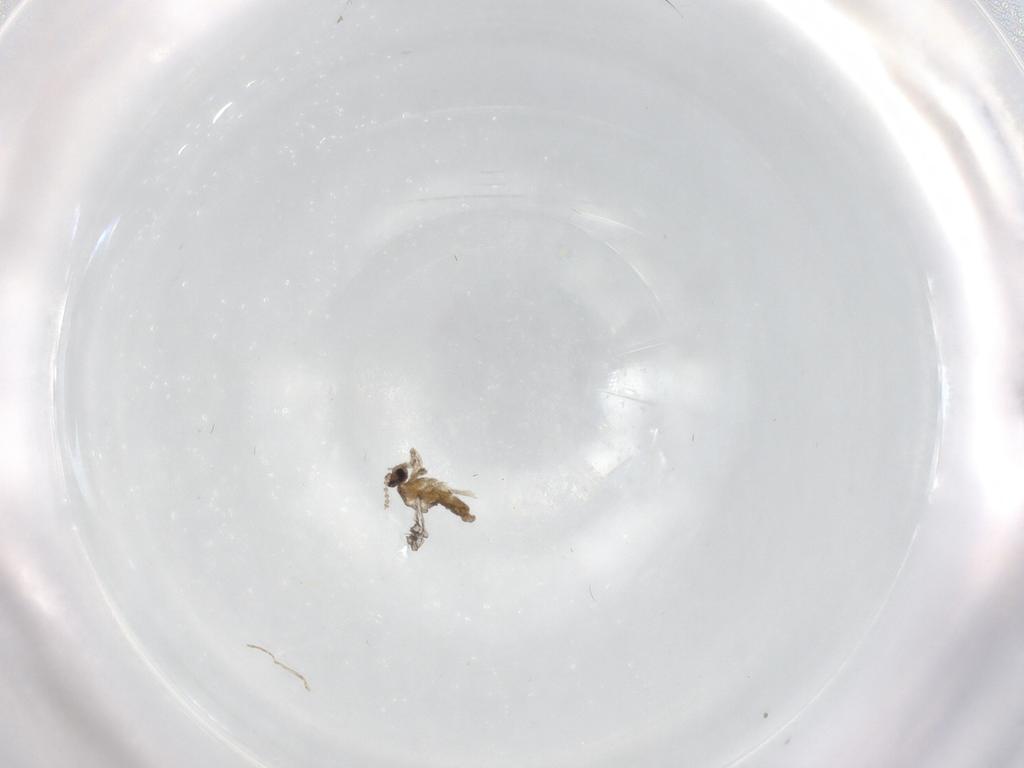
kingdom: Animalia
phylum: Arthropoda
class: Insecta
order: Diptera
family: Cecidomyiidae
